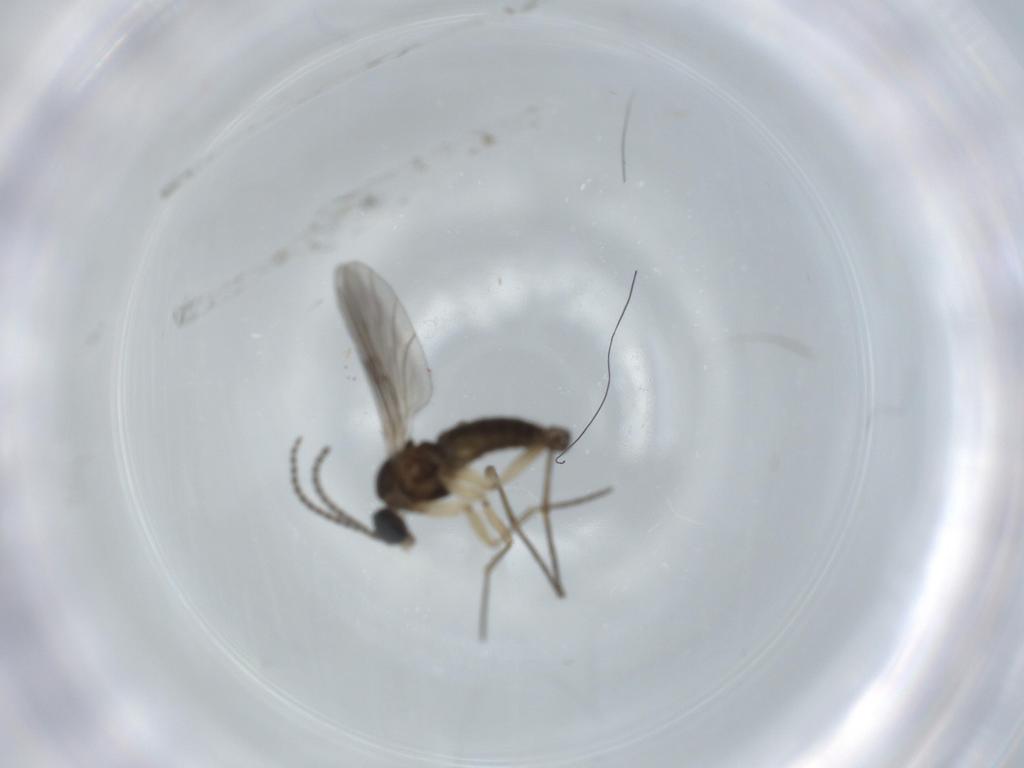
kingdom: Animalia
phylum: Arthropoda
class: Insecta
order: Diptera
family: Sciaridae
